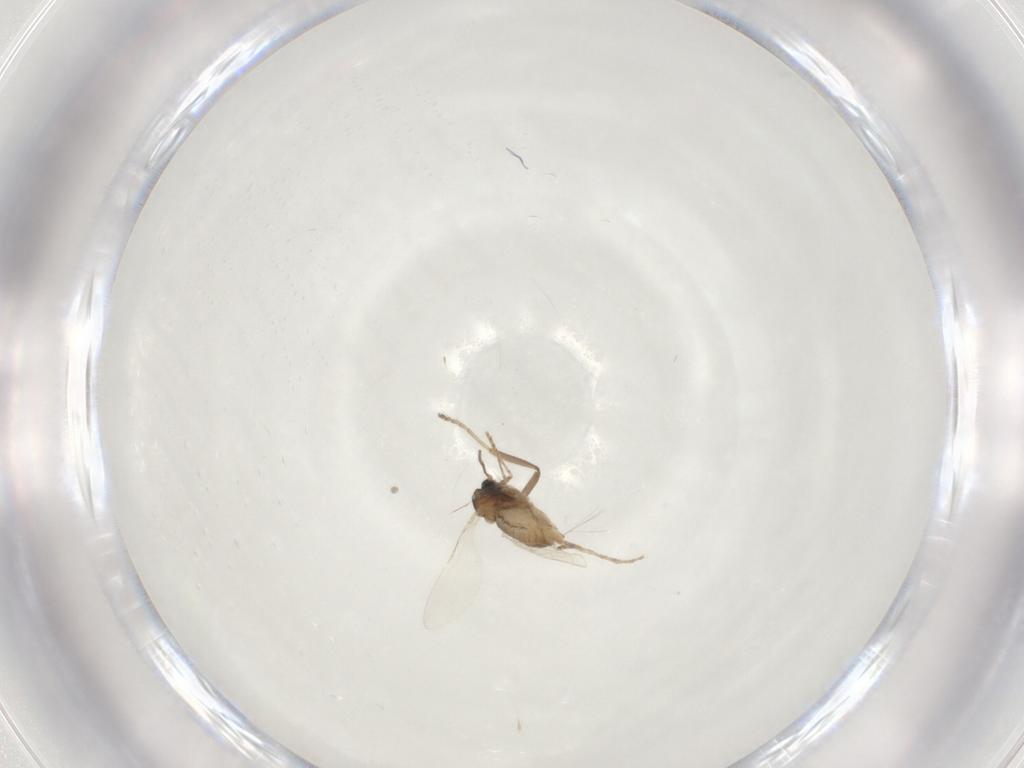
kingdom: Animalia
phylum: Arthropoda
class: Insecta
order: Diptera
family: Cecidomyiidae
